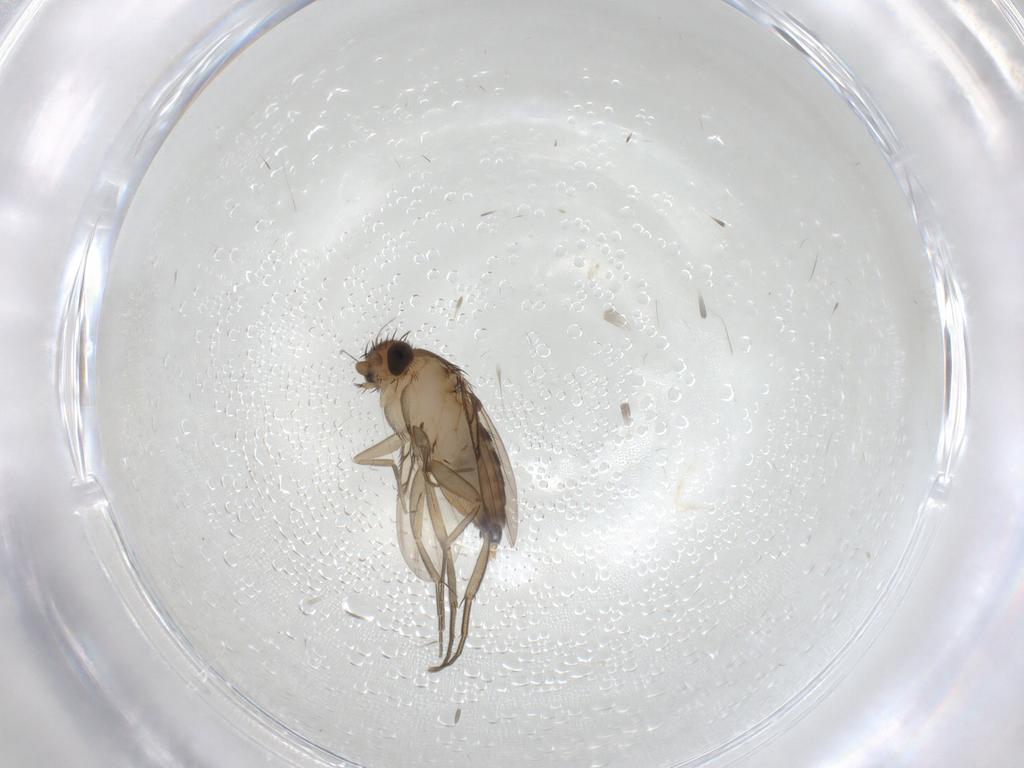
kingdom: Animalia
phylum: Arthropoda
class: Insecta
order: Diptera
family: Phoridae
